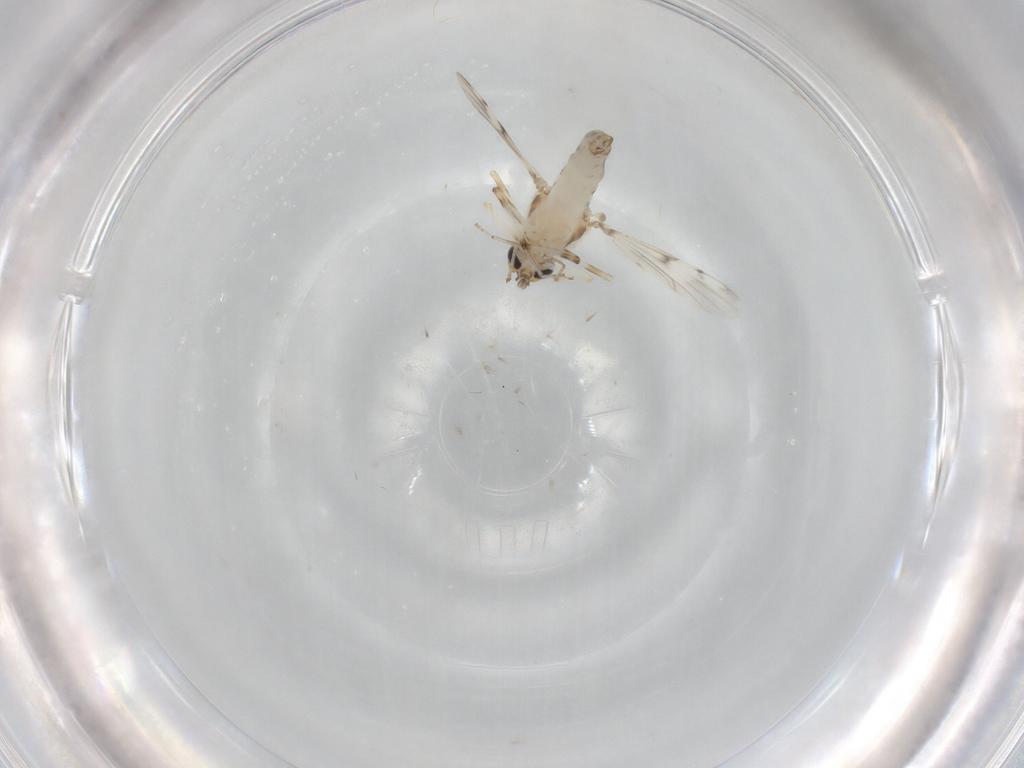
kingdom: Animalia
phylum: Arthropoda
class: Insecta
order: Diptera
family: Ceratopogonidae
